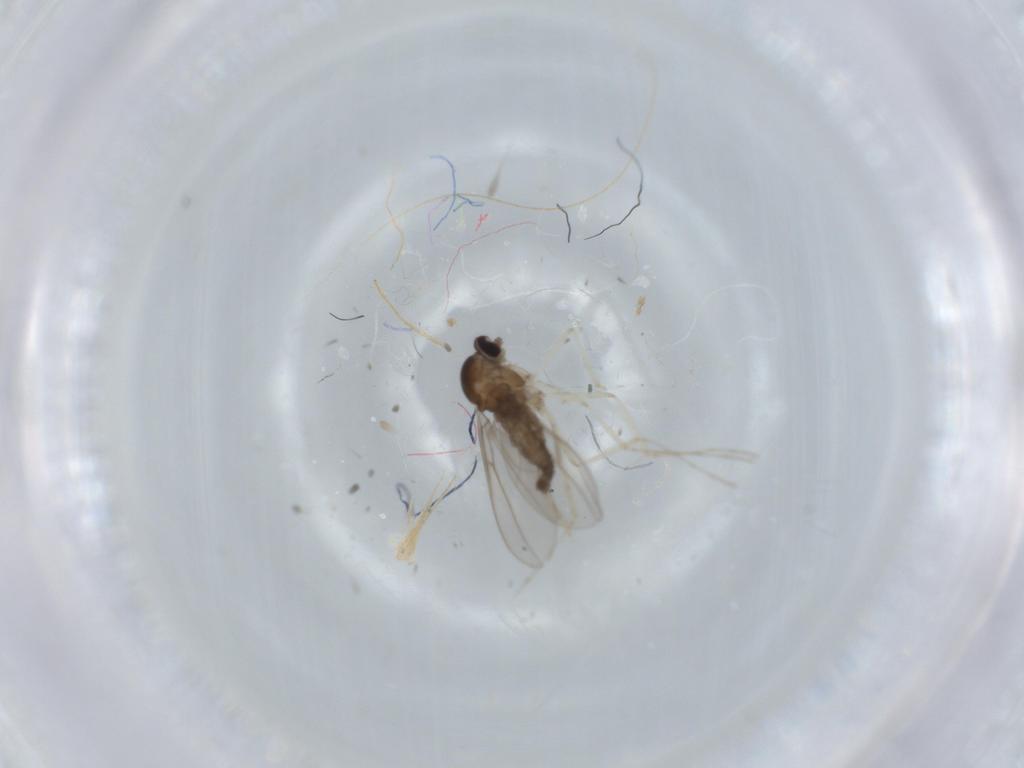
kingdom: Animalia
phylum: Arthropoda
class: Insecta
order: Diptera
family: Cecidomyiidae
